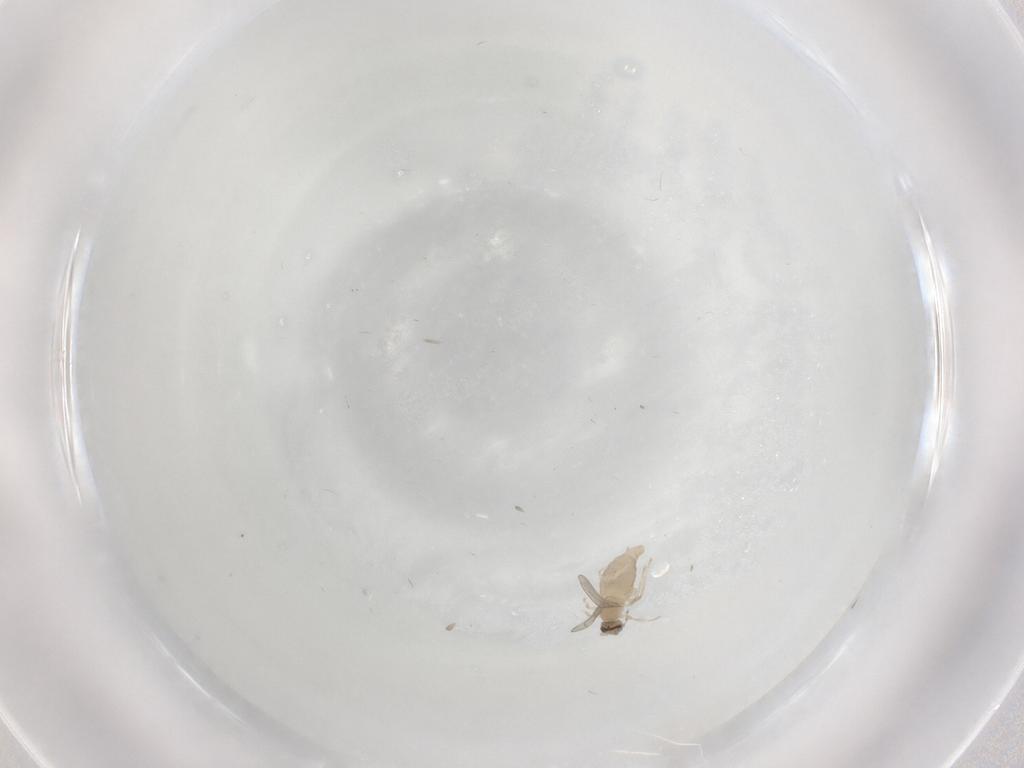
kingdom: Animalia
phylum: Arthropoda
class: Insecta
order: Diptera
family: Cecidomyiidae
